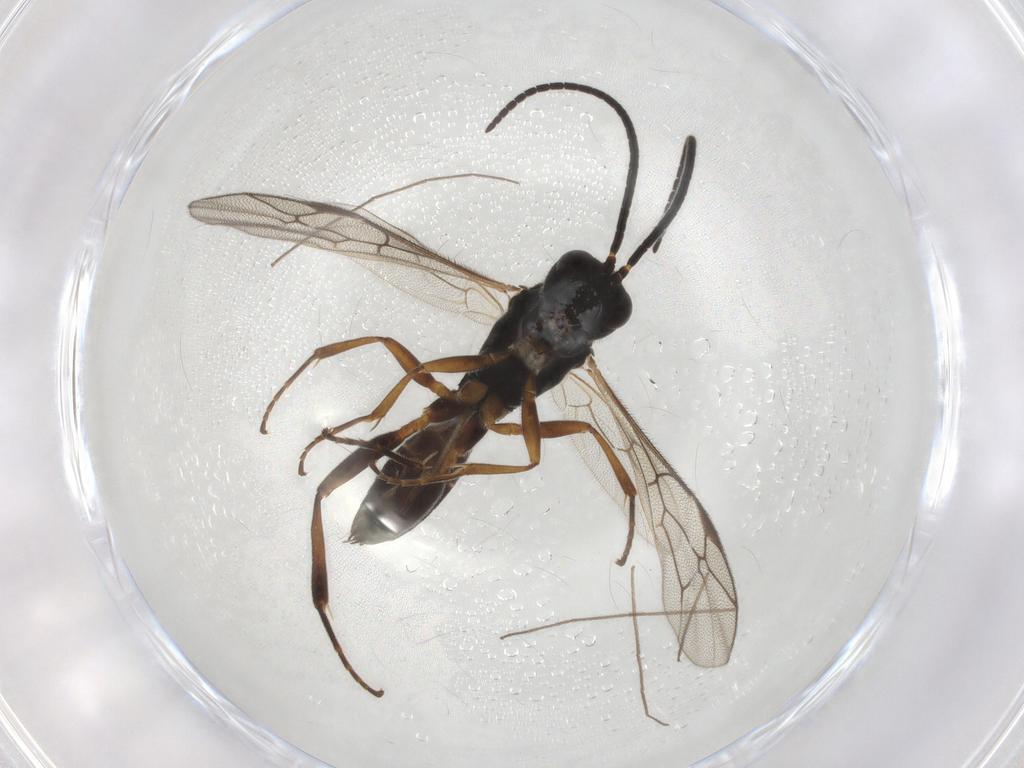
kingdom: Animalia
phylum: Arthropoda
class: Insecta
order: Hymenoptera
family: Ichneumonidae
